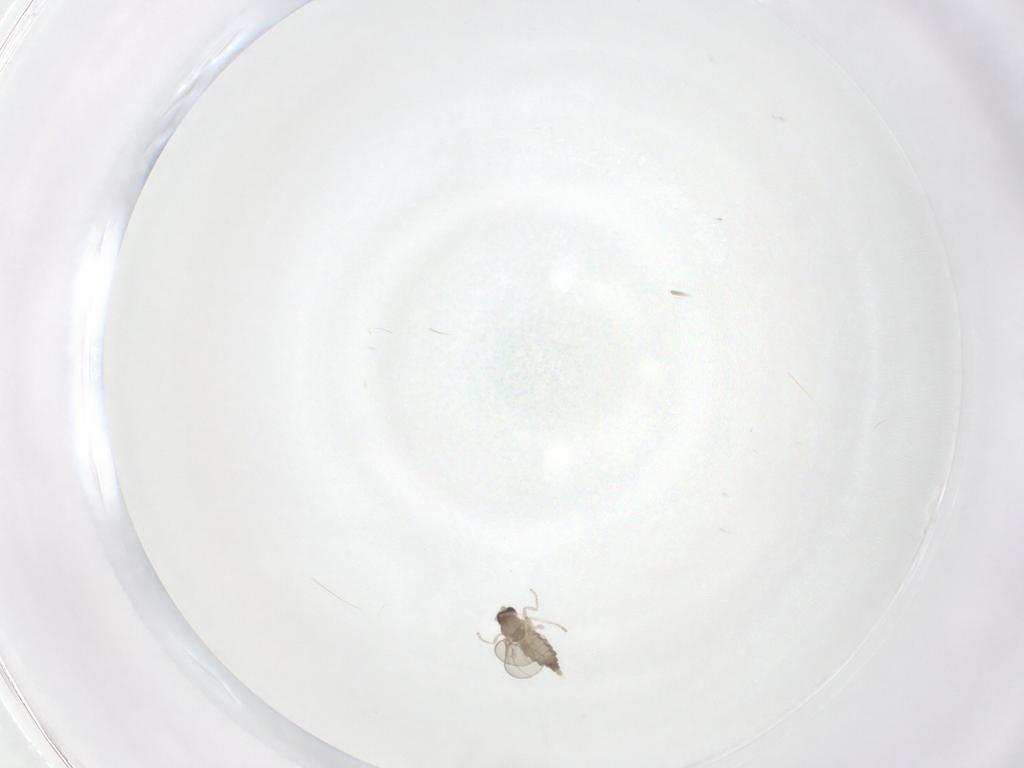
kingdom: Animalia
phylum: Arthropoda
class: Insecta
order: Diptera
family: Cecidomyiidae
